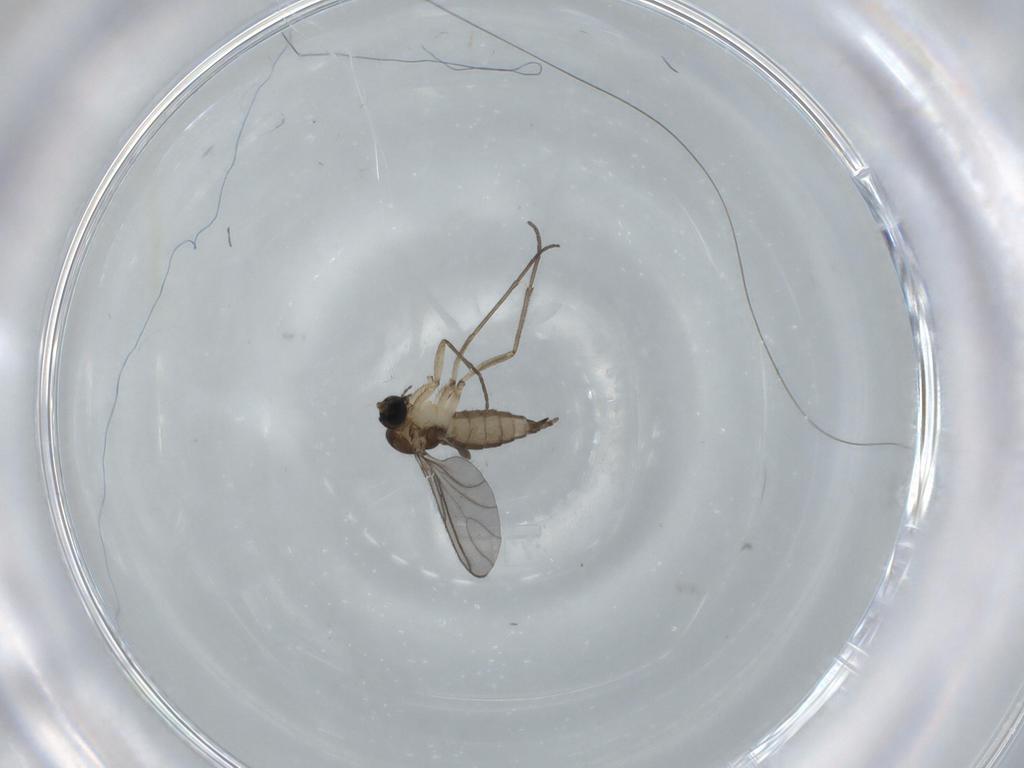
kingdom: Animalia
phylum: Arthropoda
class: Insecta
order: Diptera
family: Sciaridae
